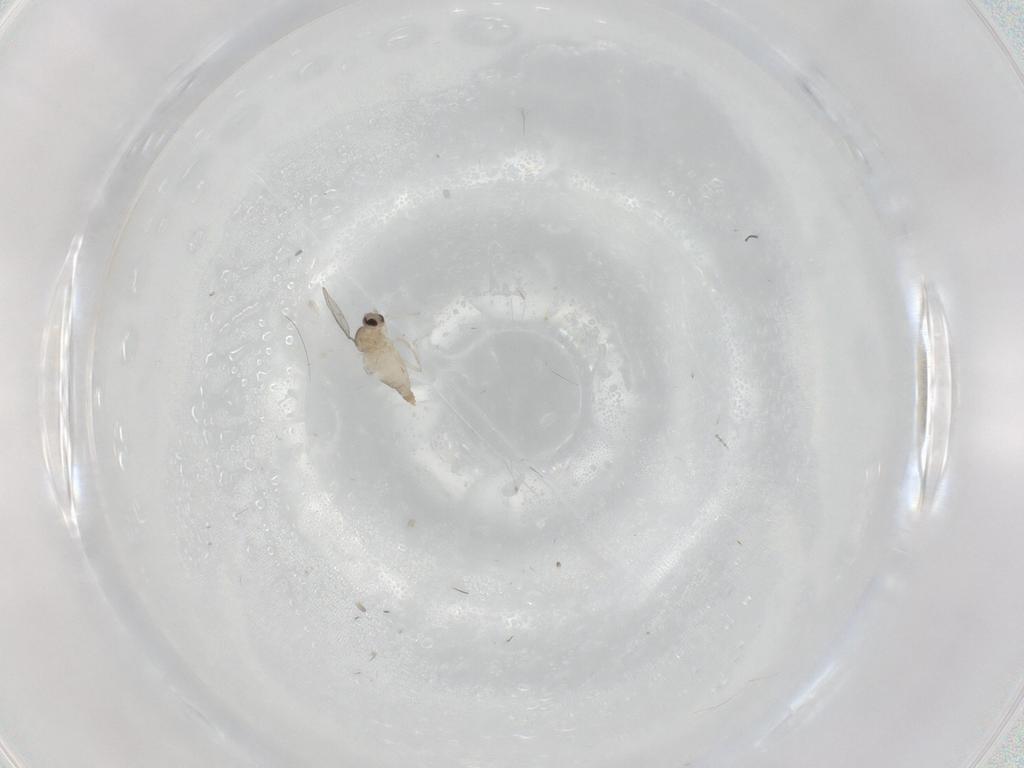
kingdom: Animalia
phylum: Arthropoda
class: Insecta
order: Diptera
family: Cecidomyiidae
